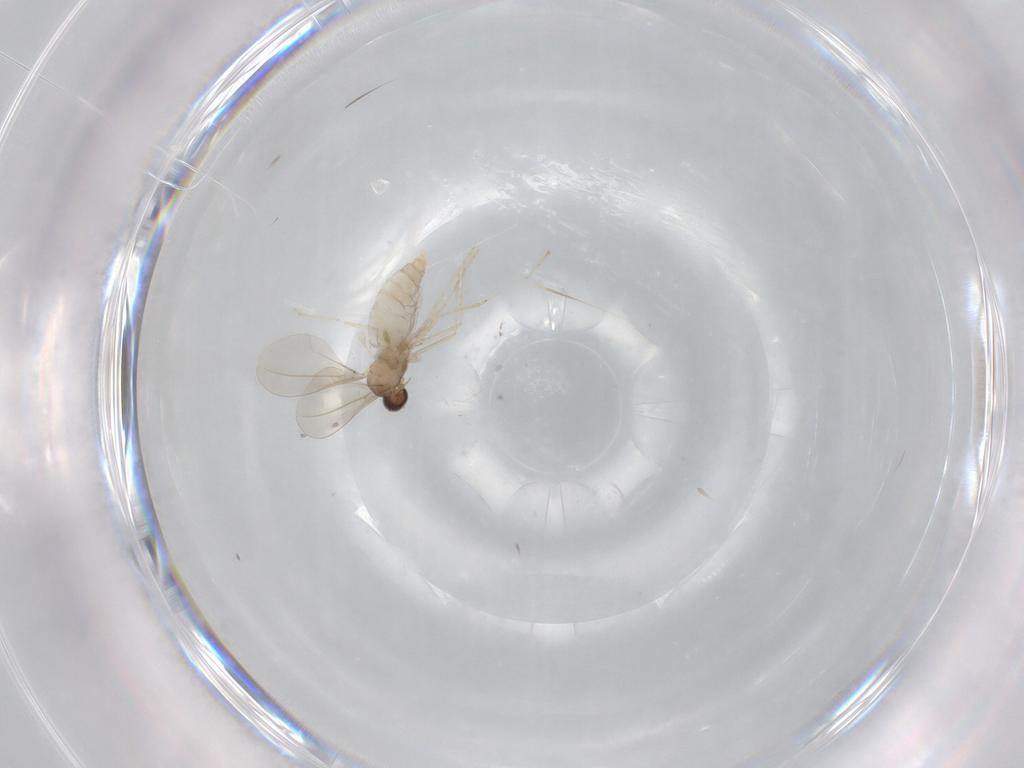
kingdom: Animalia
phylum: Arthropoda
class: Insecta
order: Diptera
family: Cecidomyiidae
